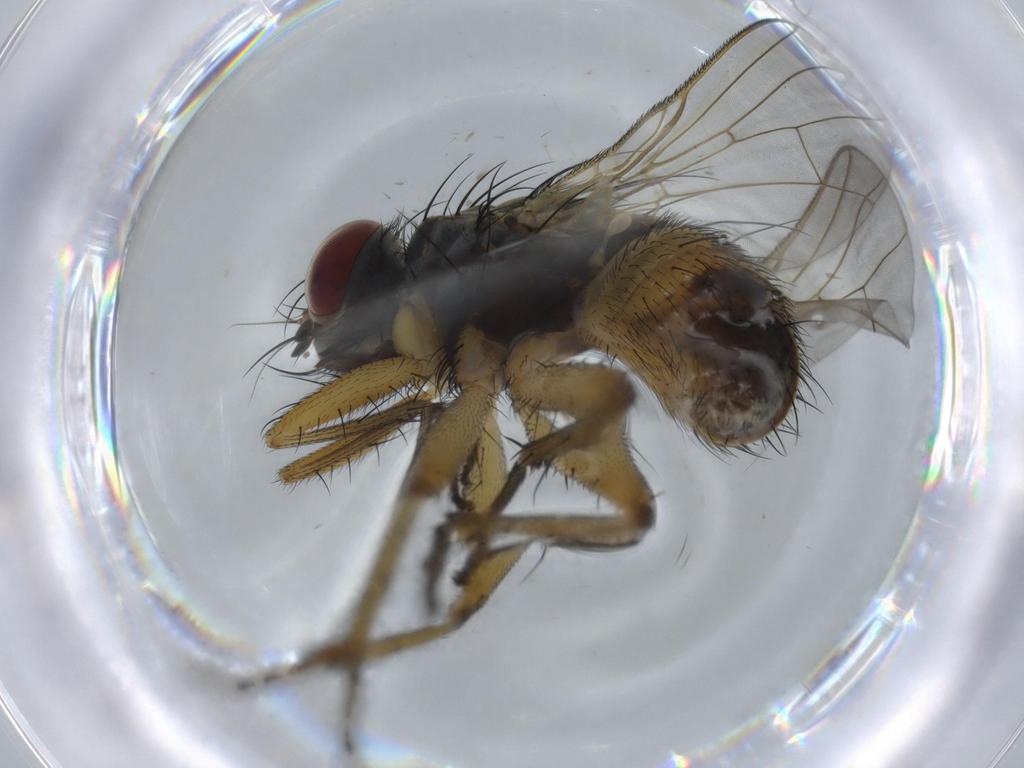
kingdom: Animalia
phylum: Arthropoda
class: Insecta
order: Diptera
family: Muscidae
